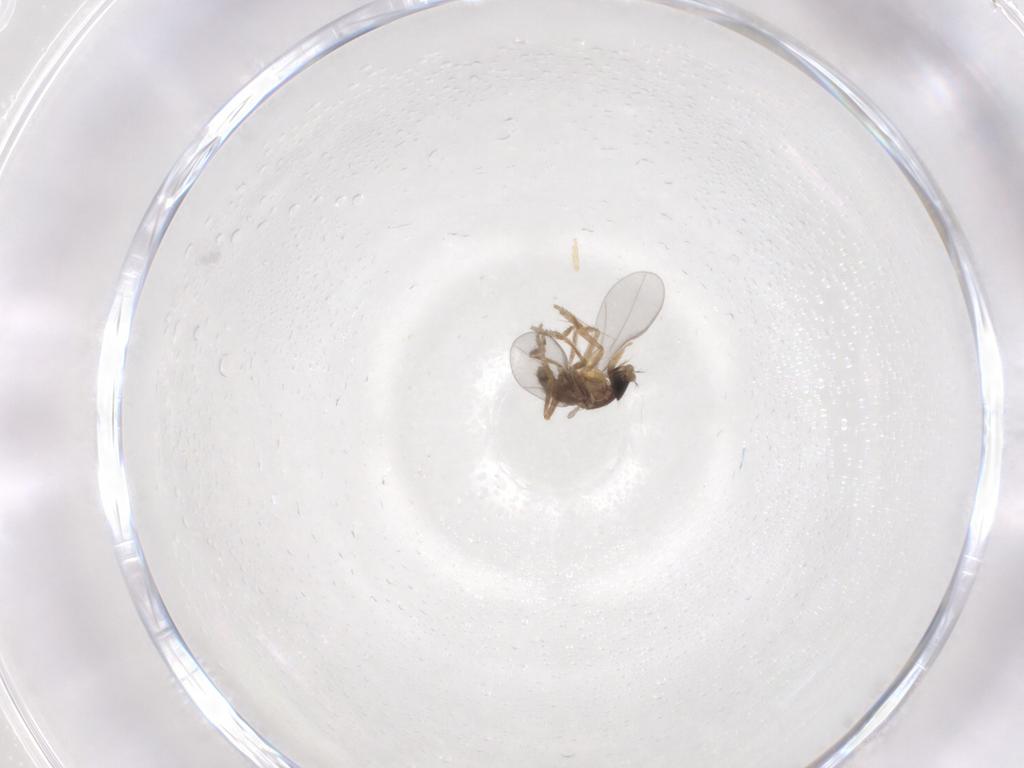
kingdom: Animalia
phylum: Arthropoda
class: Insecta
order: Diptera
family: Phoridae
